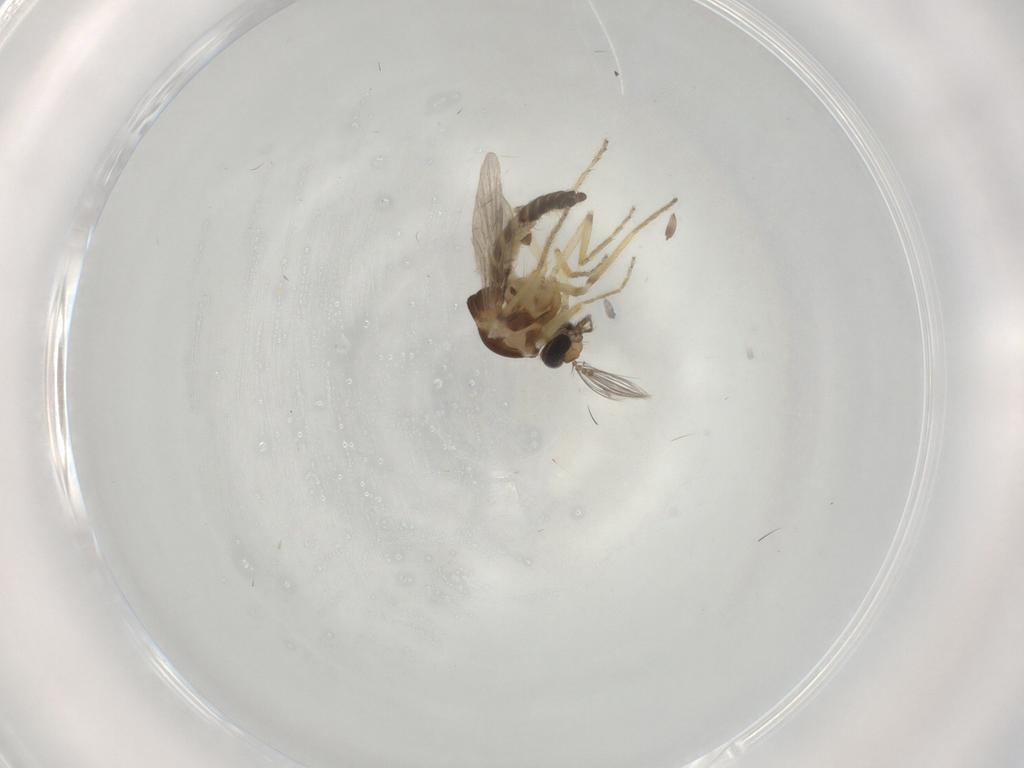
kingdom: Animalia
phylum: Arthropoda
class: Insecta
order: Diptera
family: Ceratopogonidae
